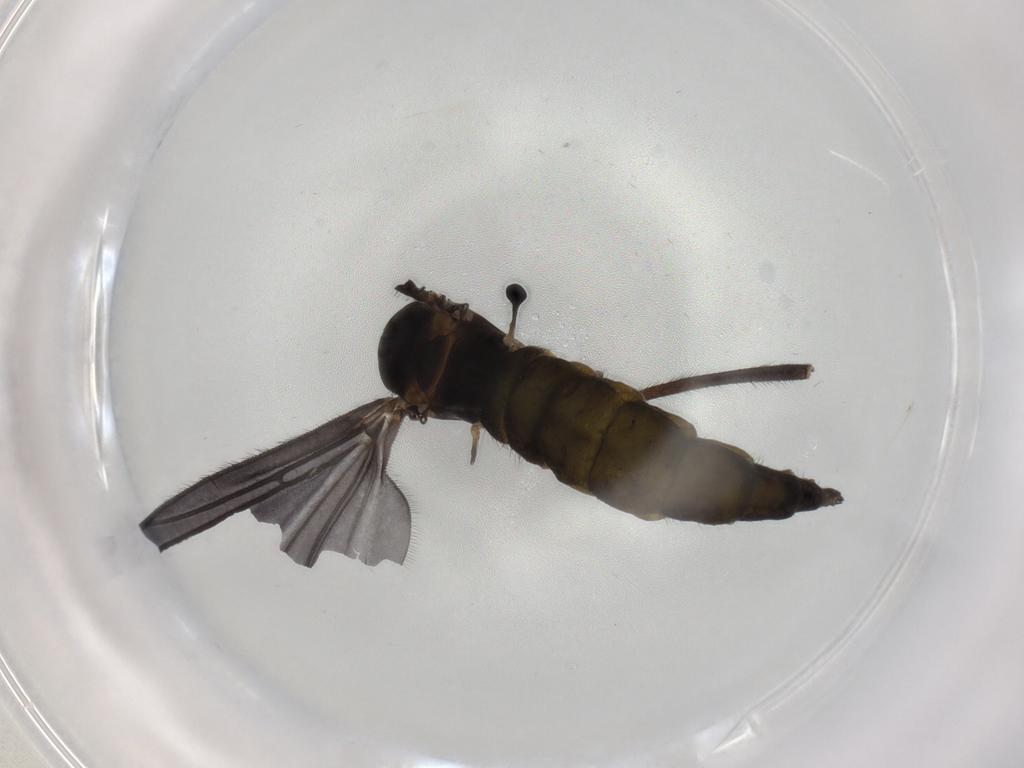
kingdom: Animalia
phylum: Arthropoda
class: Insecta
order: Diptera
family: Sciaridae
